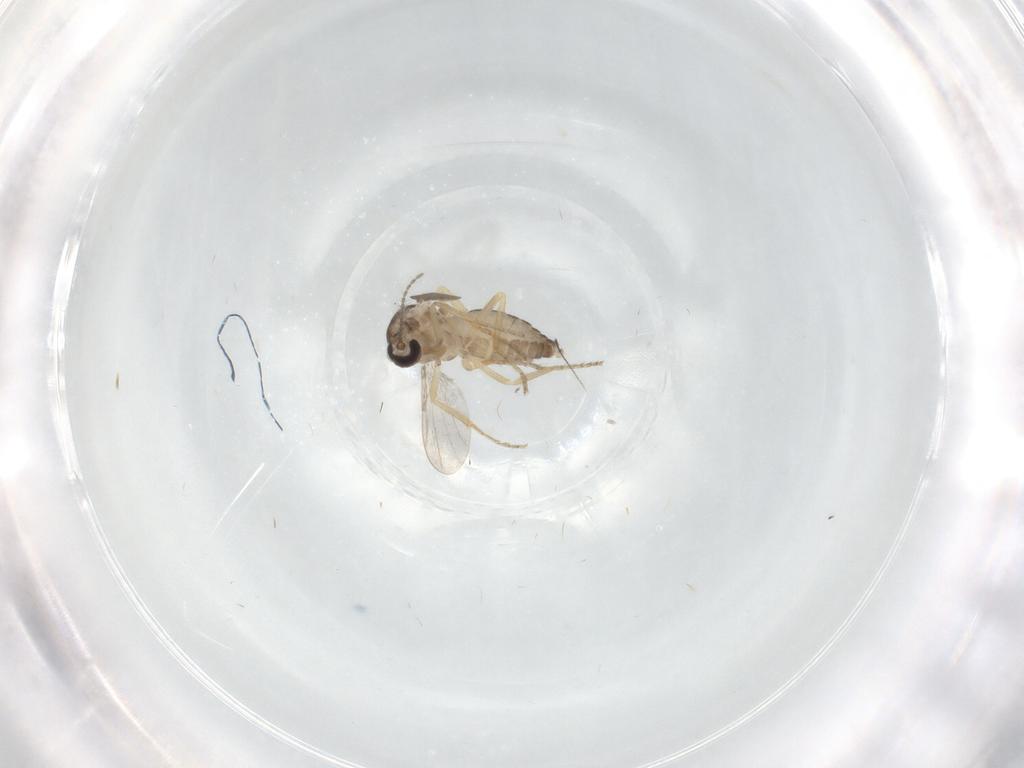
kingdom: Animalia
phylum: Arthropoda
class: Insecta
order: Diptera
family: Ceratopogonidae
